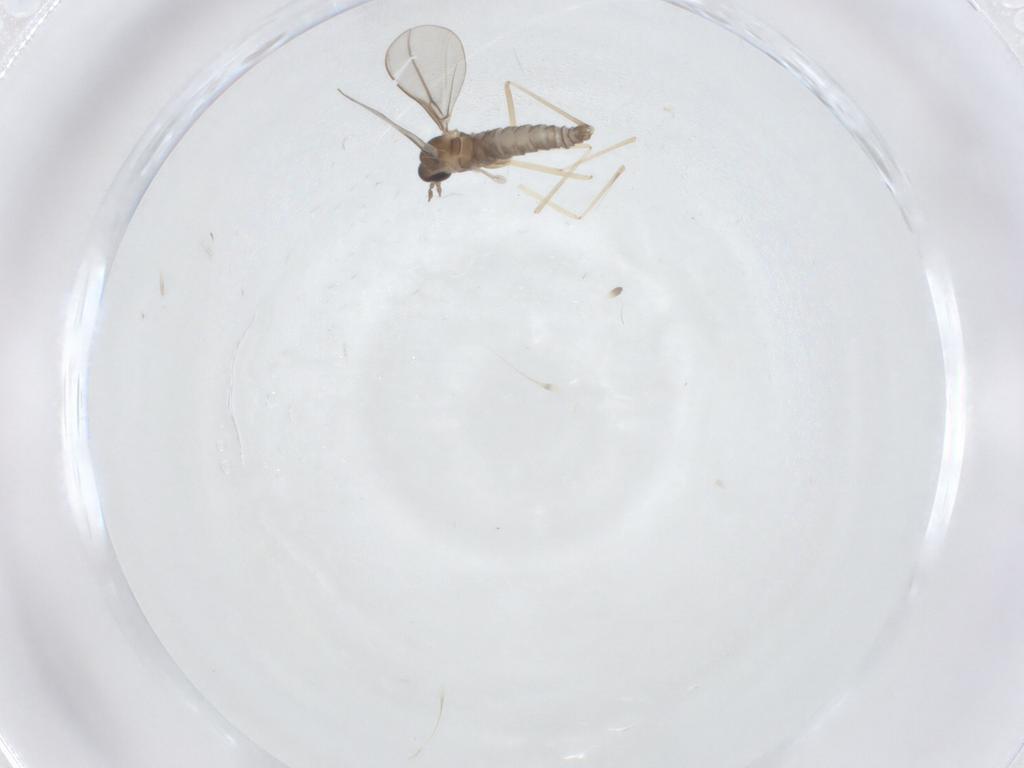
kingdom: Animalia
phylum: Arthropoda
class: Insecta
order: Diptera
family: Cecidomyiidae
